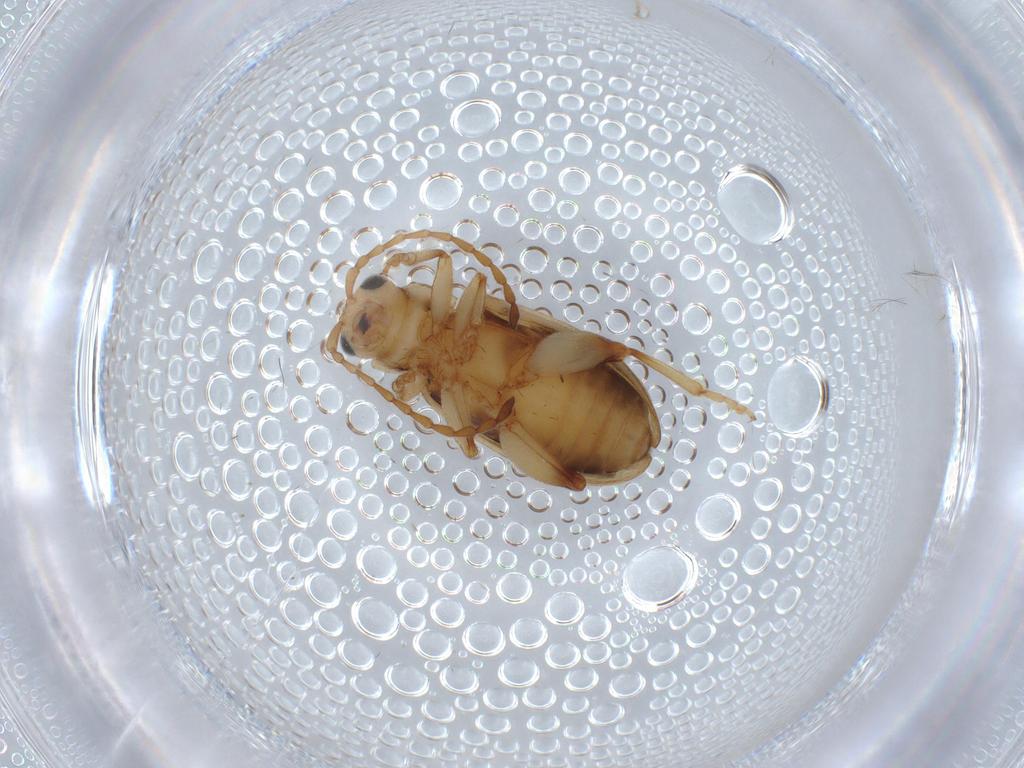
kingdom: Animalia
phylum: Arthropoda
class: Insecta
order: Coleoptera
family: Chrysomelidae
